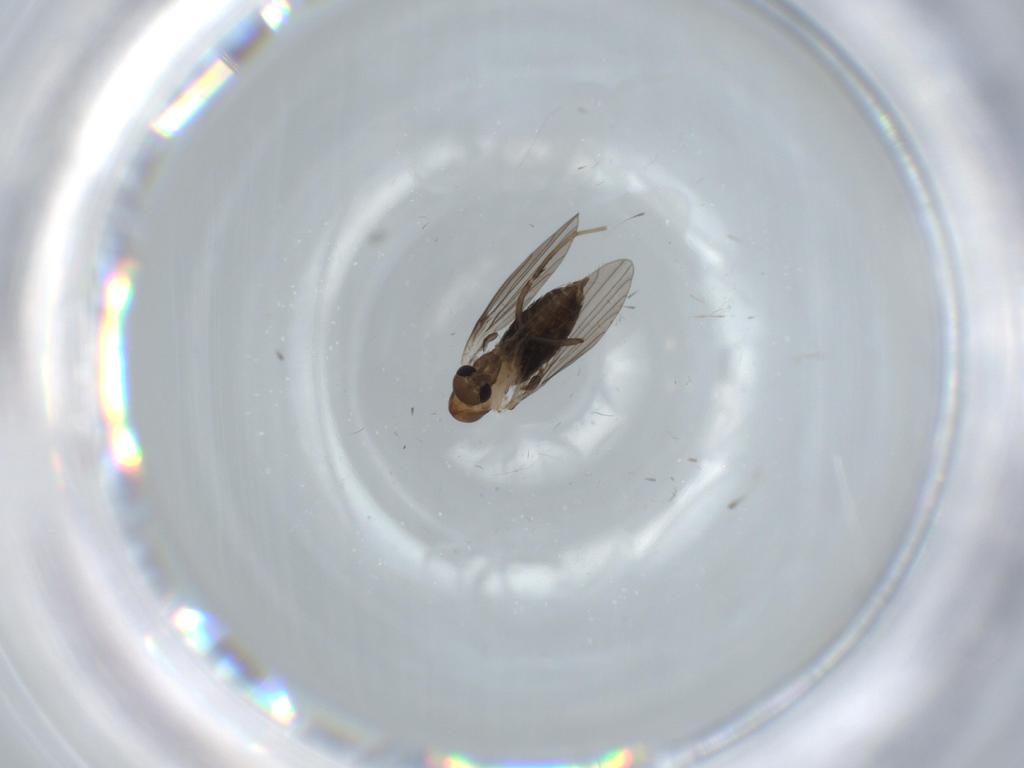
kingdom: Animalia
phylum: Arthropoda
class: Insecta
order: Diptera
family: Psychodidae
